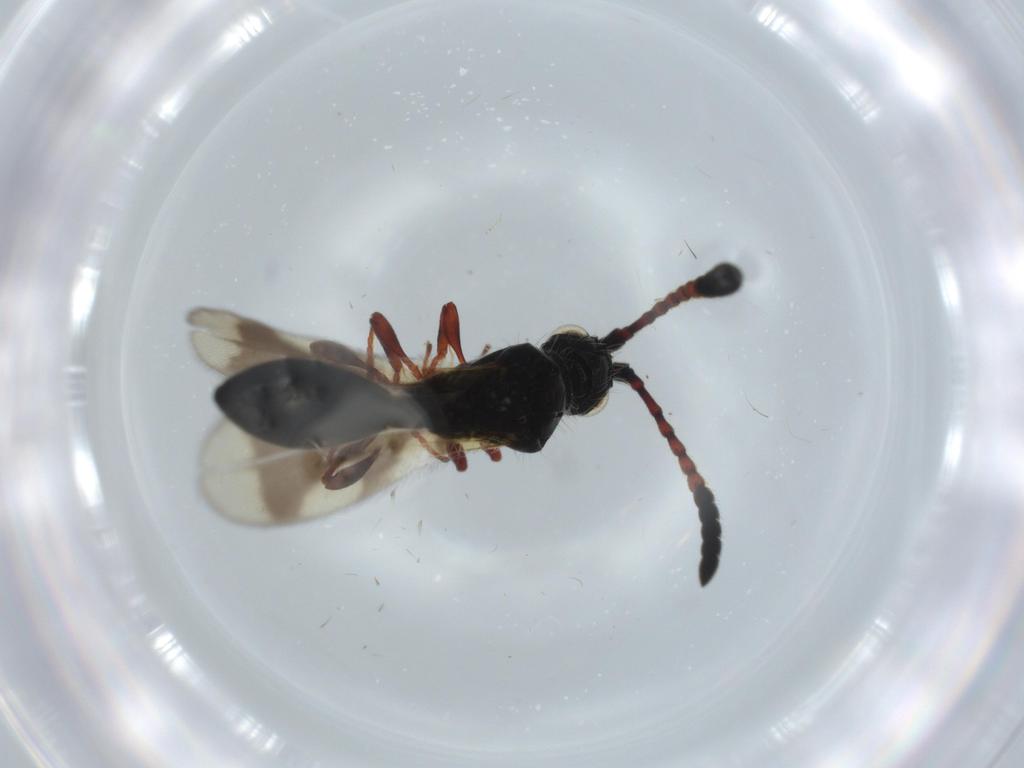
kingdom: Animalia
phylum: Arthropoda
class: Insecta
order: Hymenoptera
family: Diapriidae
